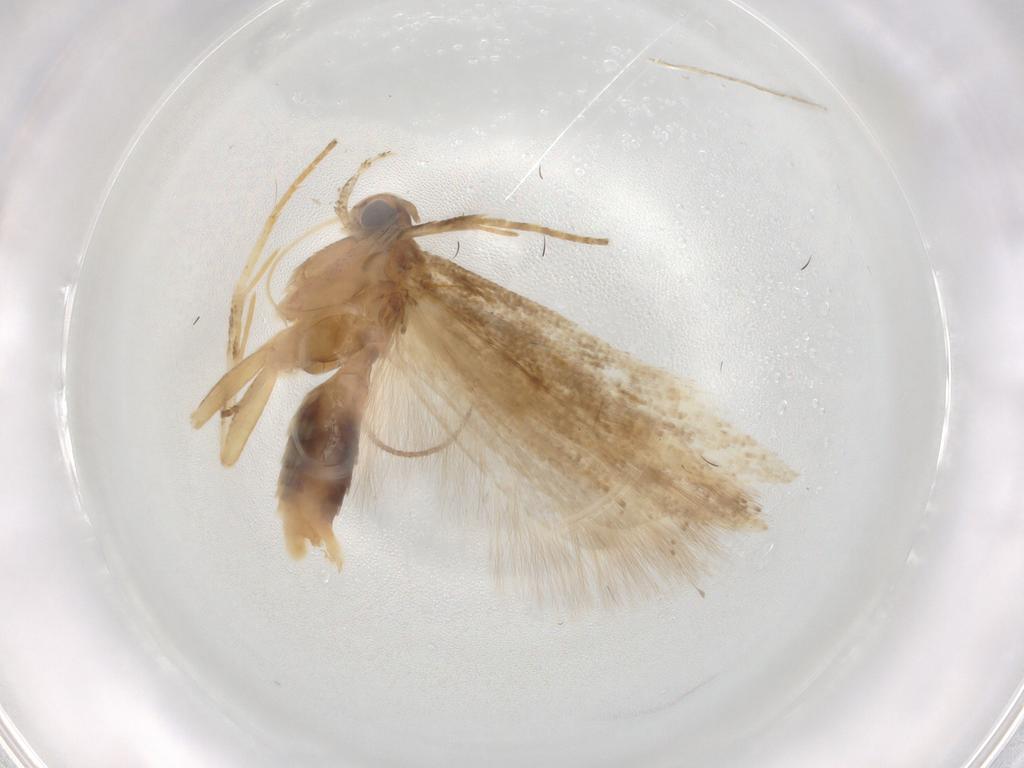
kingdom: Animalia
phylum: Arthropoda
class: Insecta
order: Lepidoptera
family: Gelechiidae
